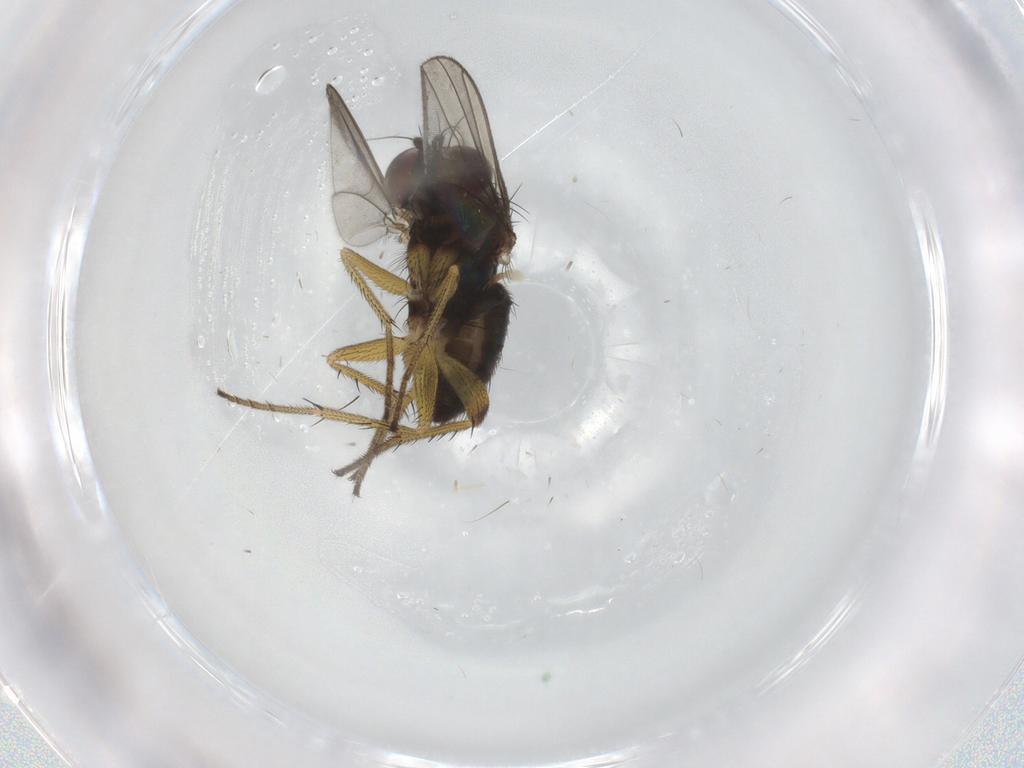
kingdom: Animalia
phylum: Arthropoda
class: Insecta
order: Diptera
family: Dolichopodidae
